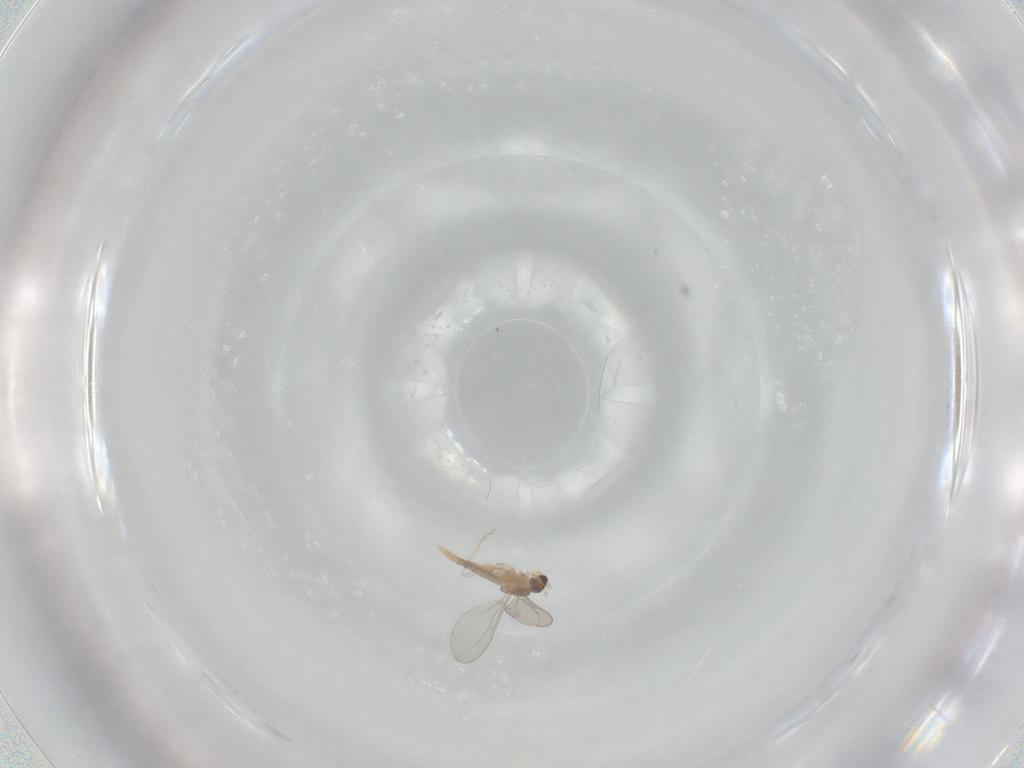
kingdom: Animalia
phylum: Arthropoda
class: Insecta
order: Diptera
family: Cecidomyiidae
